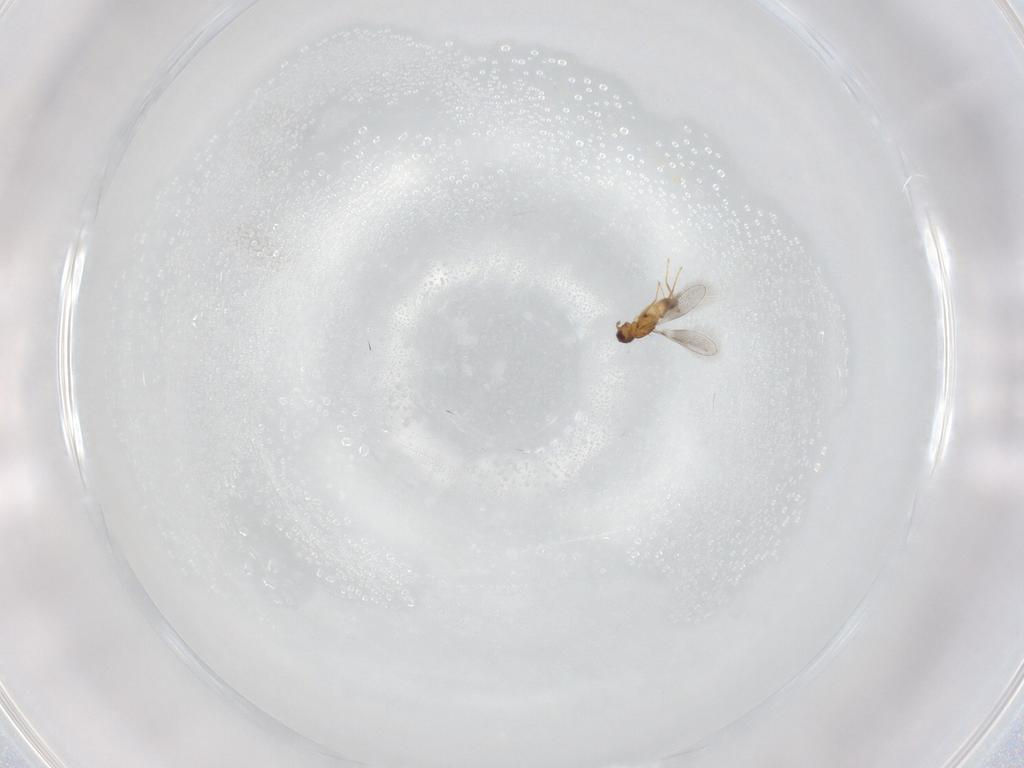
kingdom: Animalia
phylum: Arthropoda
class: Insecta
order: Hymenoptera
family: Mymaridae
